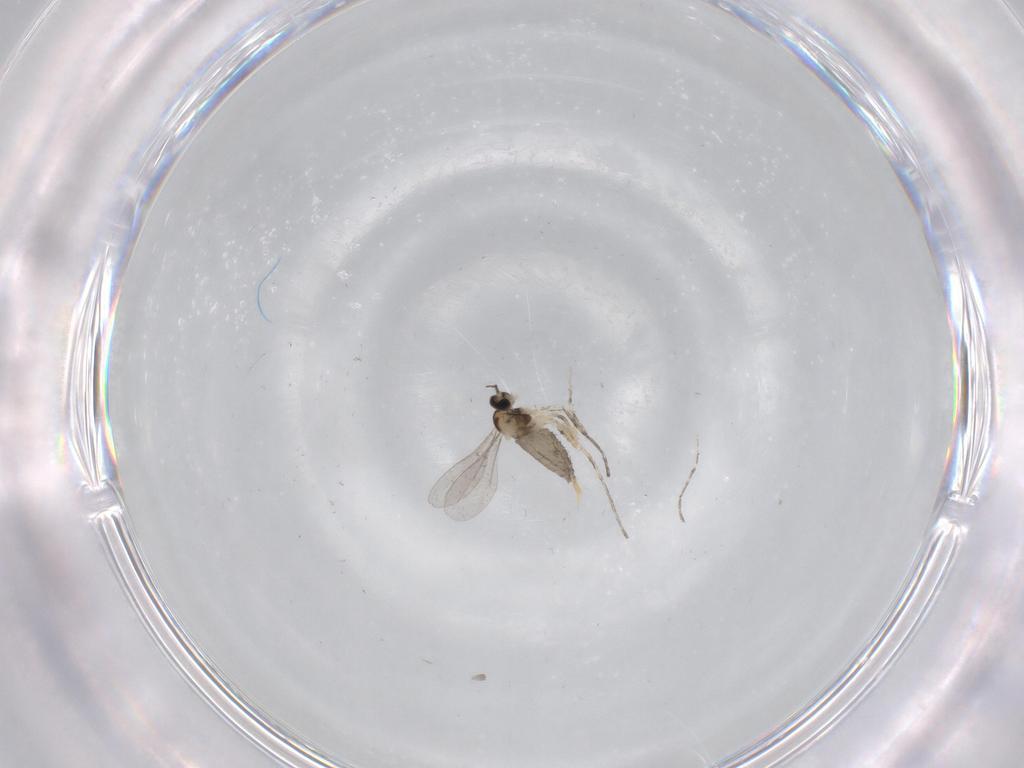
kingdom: Animalia
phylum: Arthropoda
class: Insecta
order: Diptera
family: Cecidomyiidae
